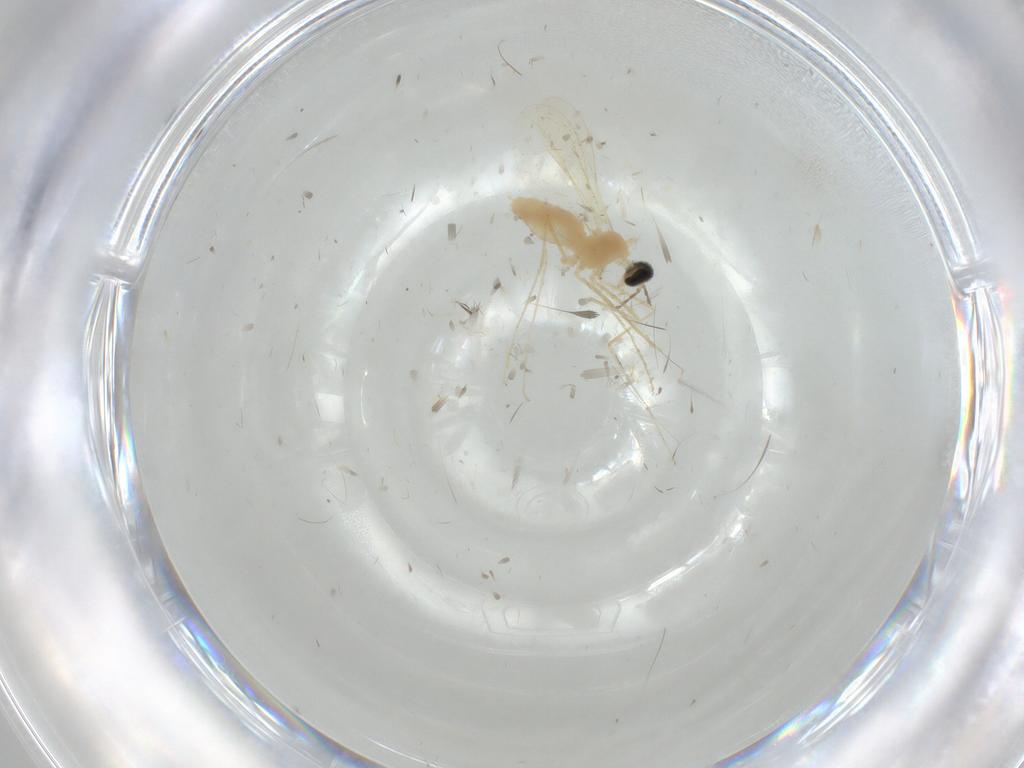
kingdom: Animalia
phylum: Arthropoda
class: Insecta
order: Diptera
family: Cecidomyiidae
